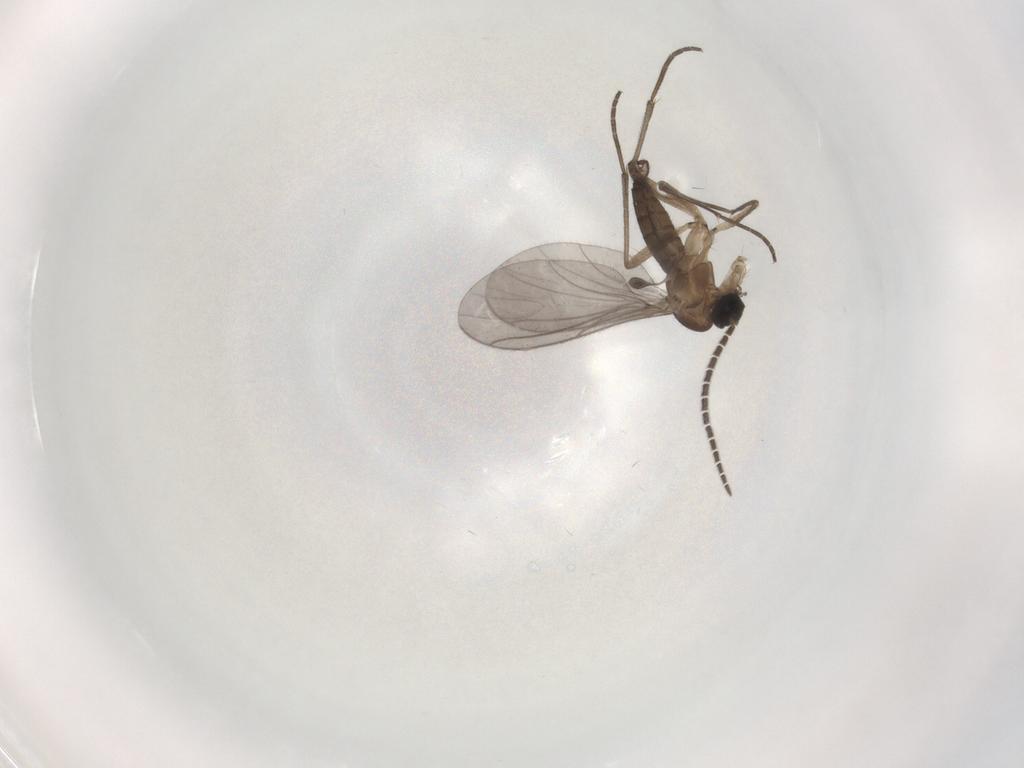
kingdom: Animalia
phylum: Arthropoda
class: Insecta
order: Diptera
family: Sciaridae
